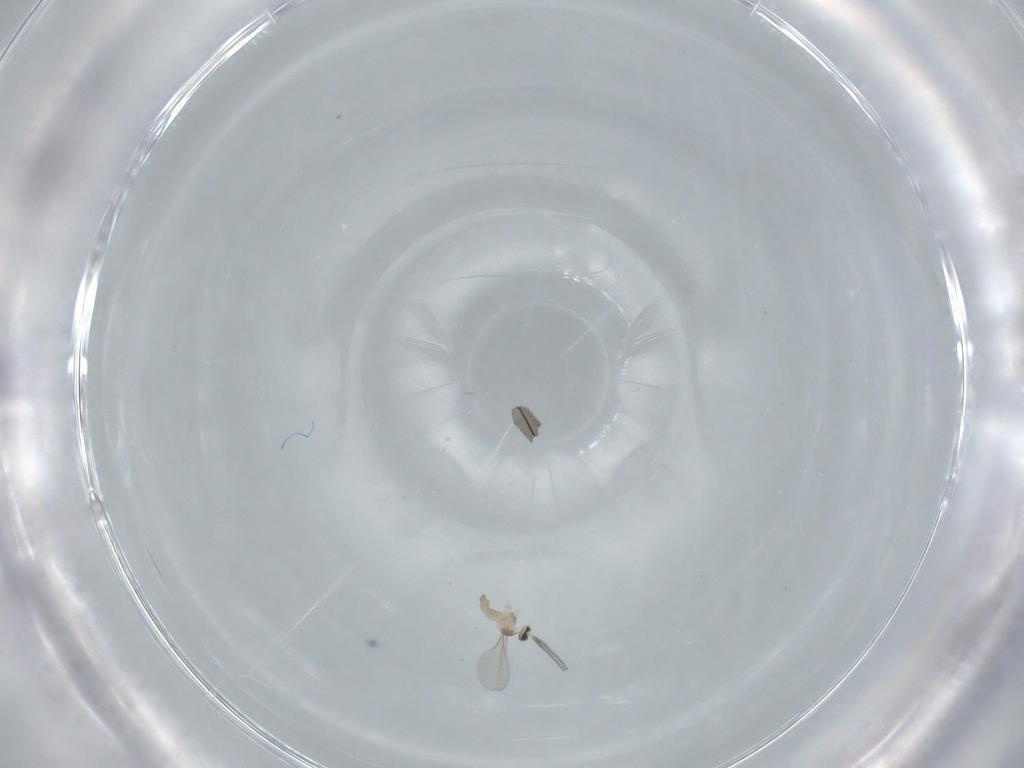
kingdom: Animalia
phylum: Arthropoda
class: Insecta
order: Diptera
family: Cecidomyiidae
